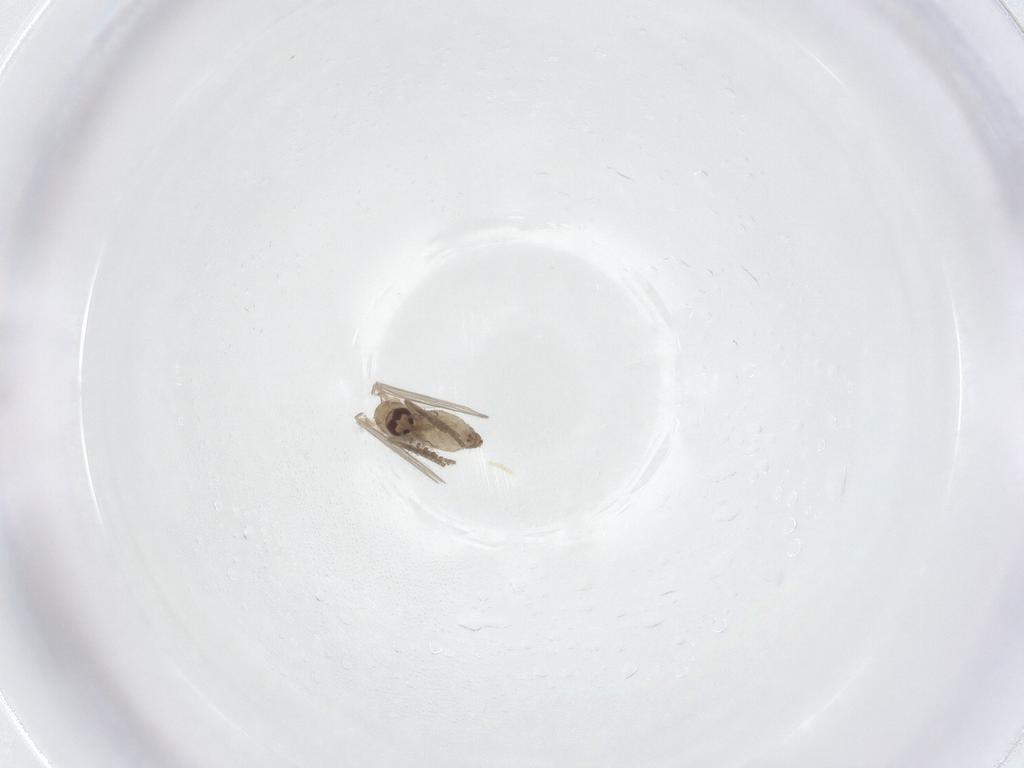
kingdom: Animalia
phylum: Arthropoda
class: Insecta
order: Diptera
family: Psychodidae
